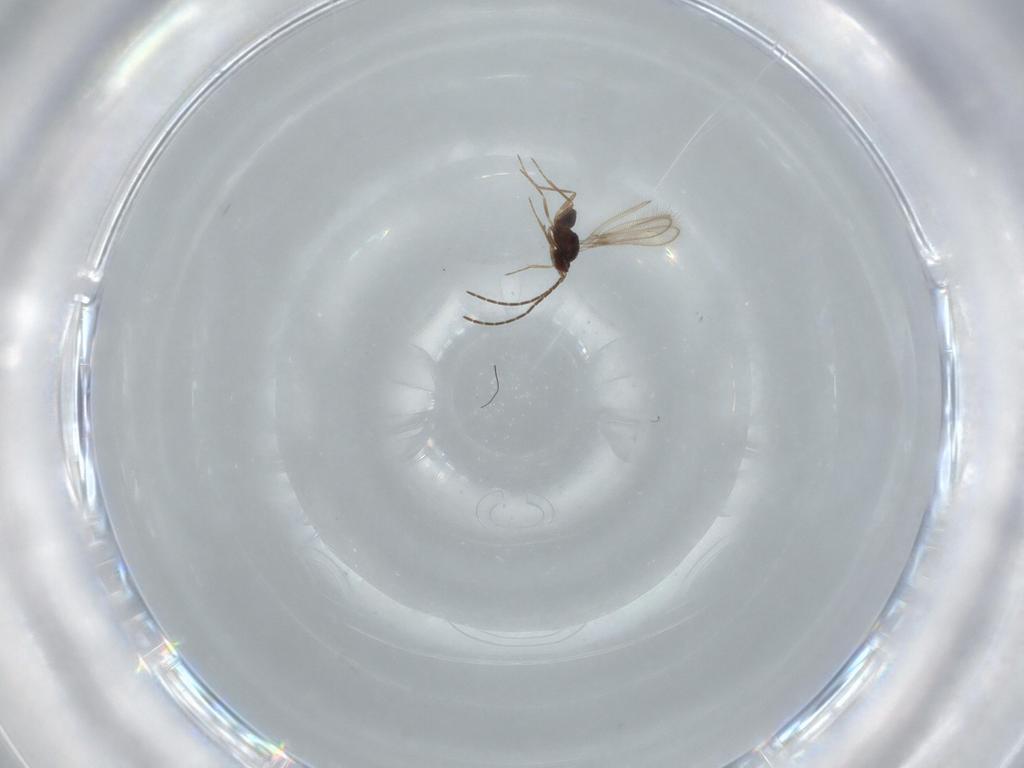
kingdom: Animalia
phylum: Arthropoda
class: Insecta
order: Hymenoptera
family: Mymaridae
